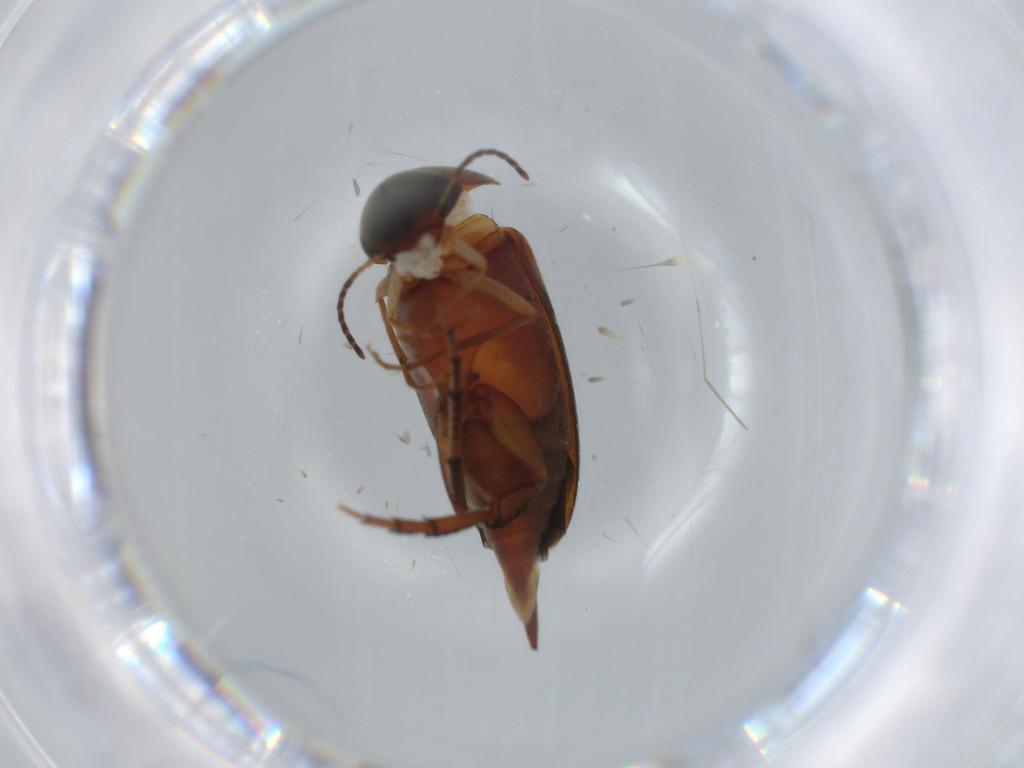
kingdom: Animalia
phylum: Arthropoda
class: Insecta
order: Coleoptera
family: Throscidae
